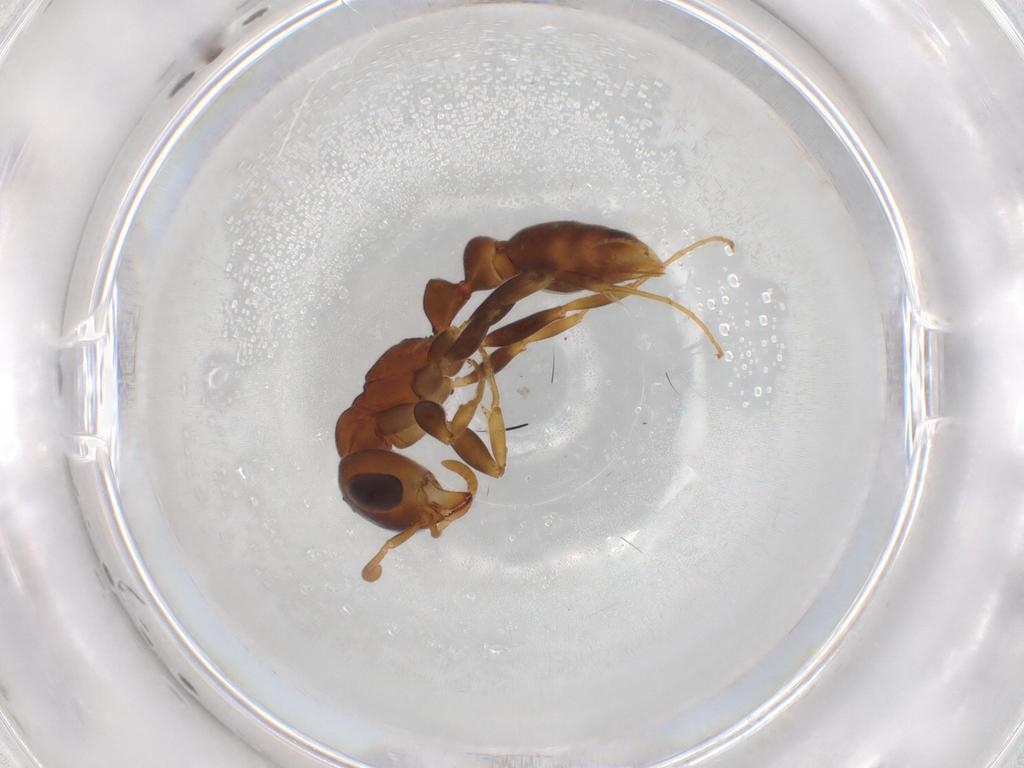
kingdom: Animalia
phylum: Arthropoda
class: Insecta
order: Hymenoptera
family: Formicidae
